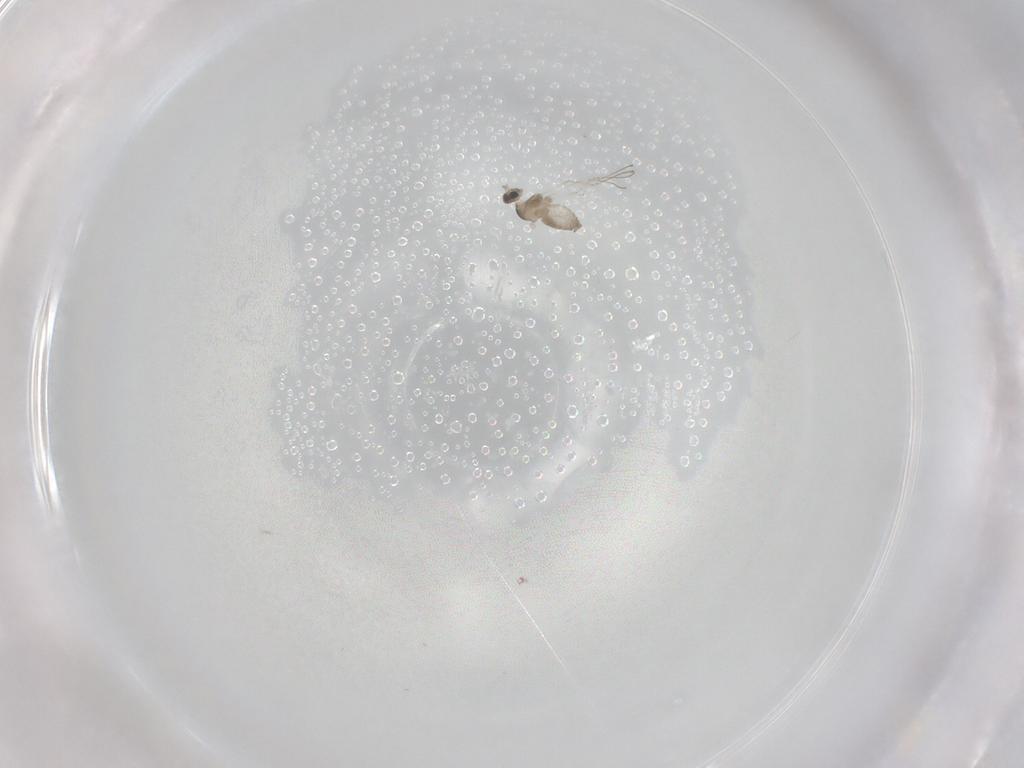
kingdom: Animalia
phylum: Arthropoda
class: Insecta
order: Diptera
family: Cecidomyiidae
